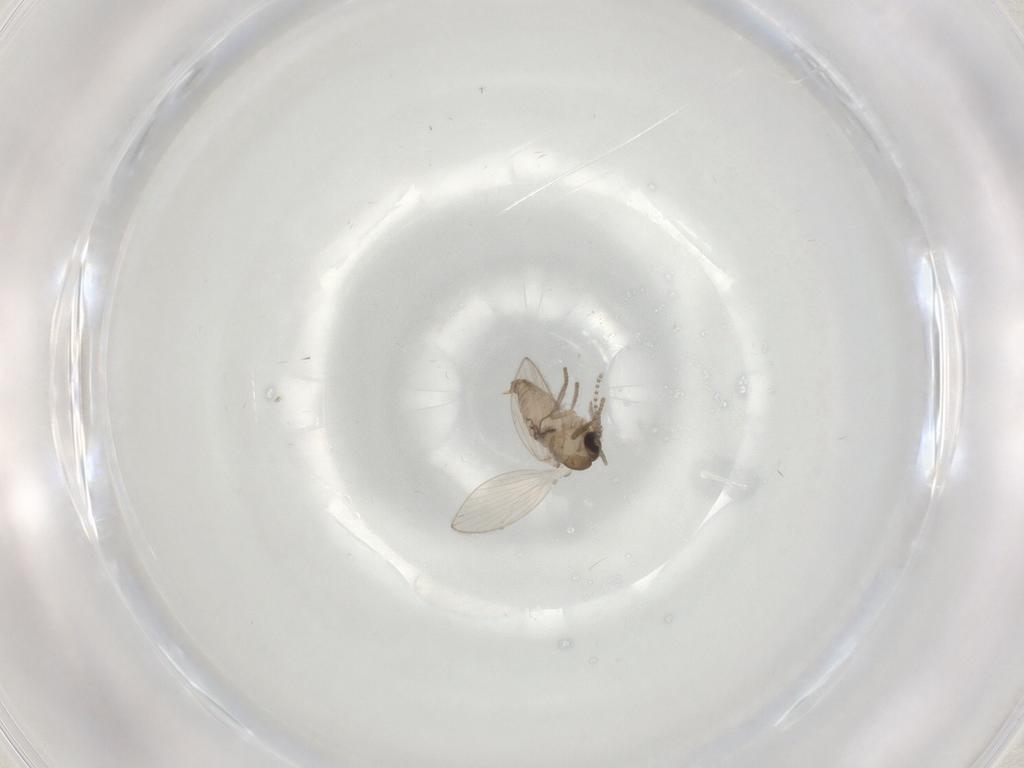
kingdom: Animalia
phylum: Arthropoda
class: Insecta
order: Diptera
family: Psychodidae
